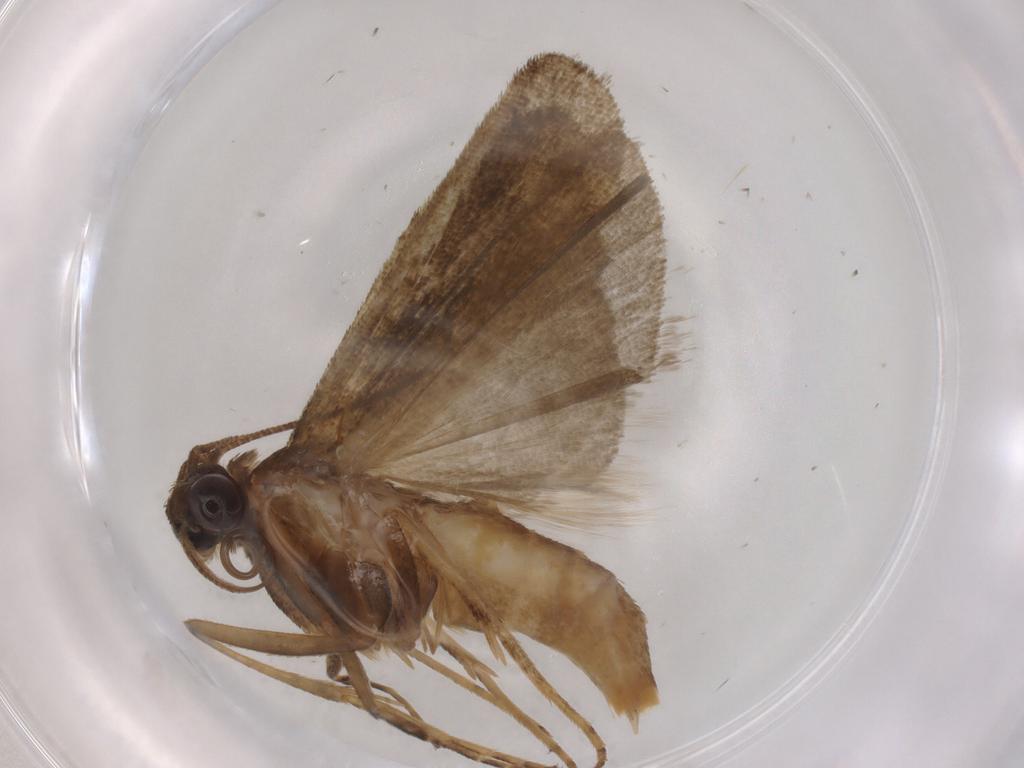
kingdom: Animalia
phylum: Arthropoda
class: Insecta
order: Lepidoptera
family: Noctuidae
